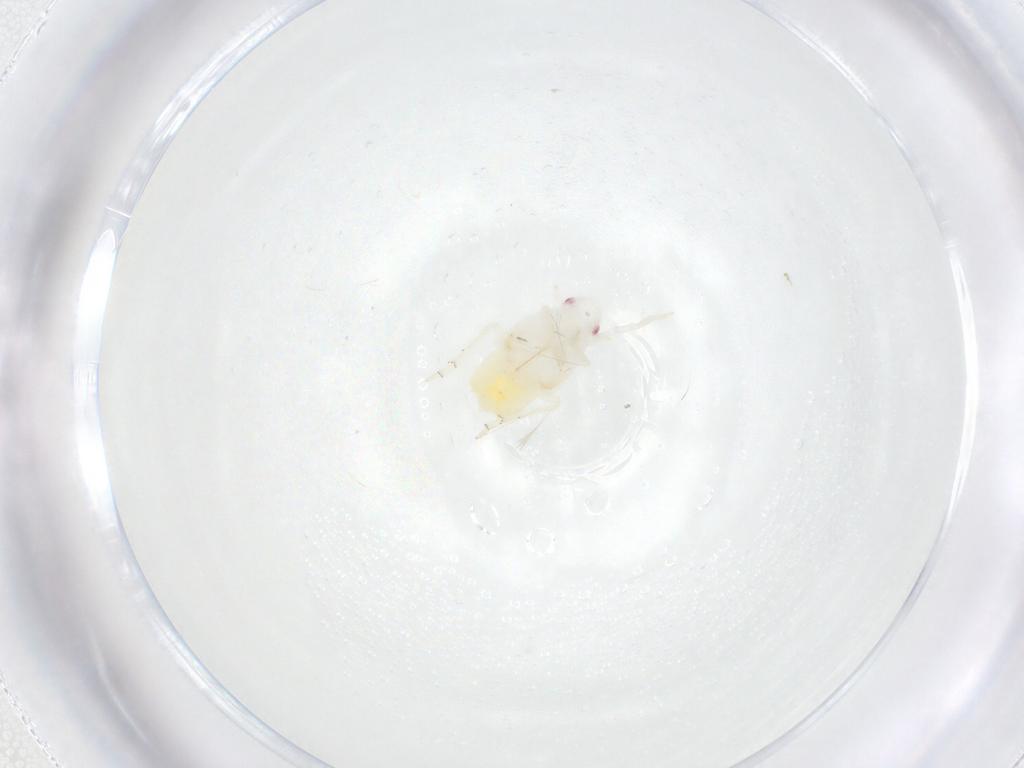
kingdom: Animalia
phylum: Arthropoda
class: Insecta
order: Hemiptera
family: Flatidae
